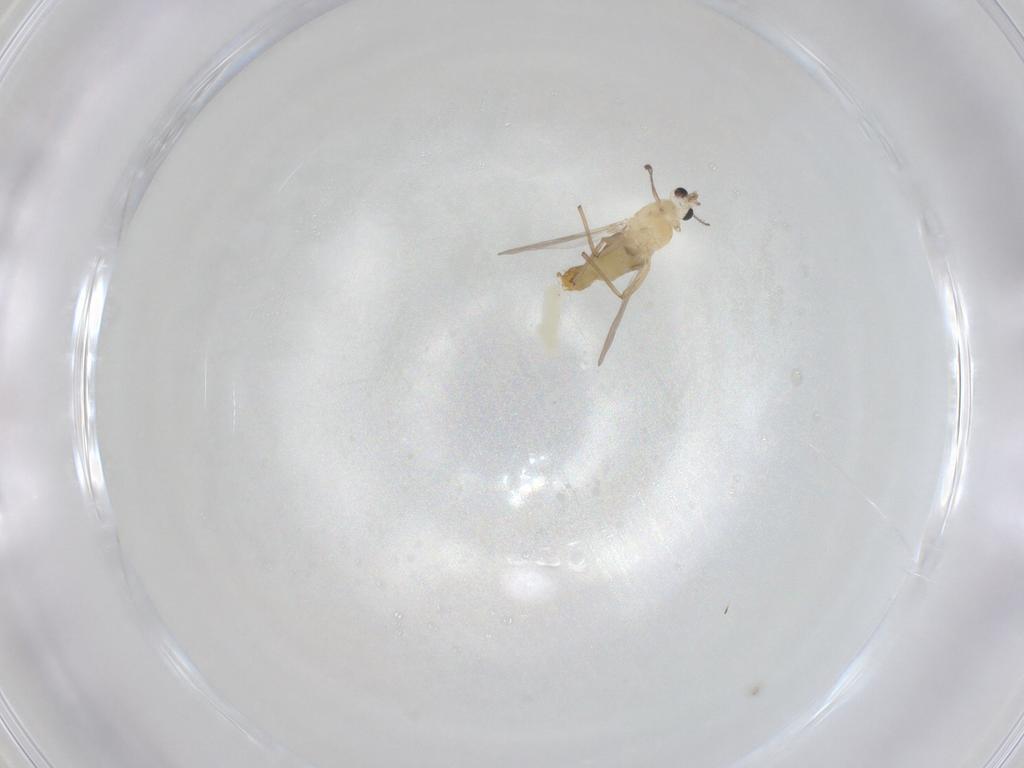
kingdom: Animalia
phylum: Arthropoda
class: Insecta
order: Diptera
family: Chironomidae
